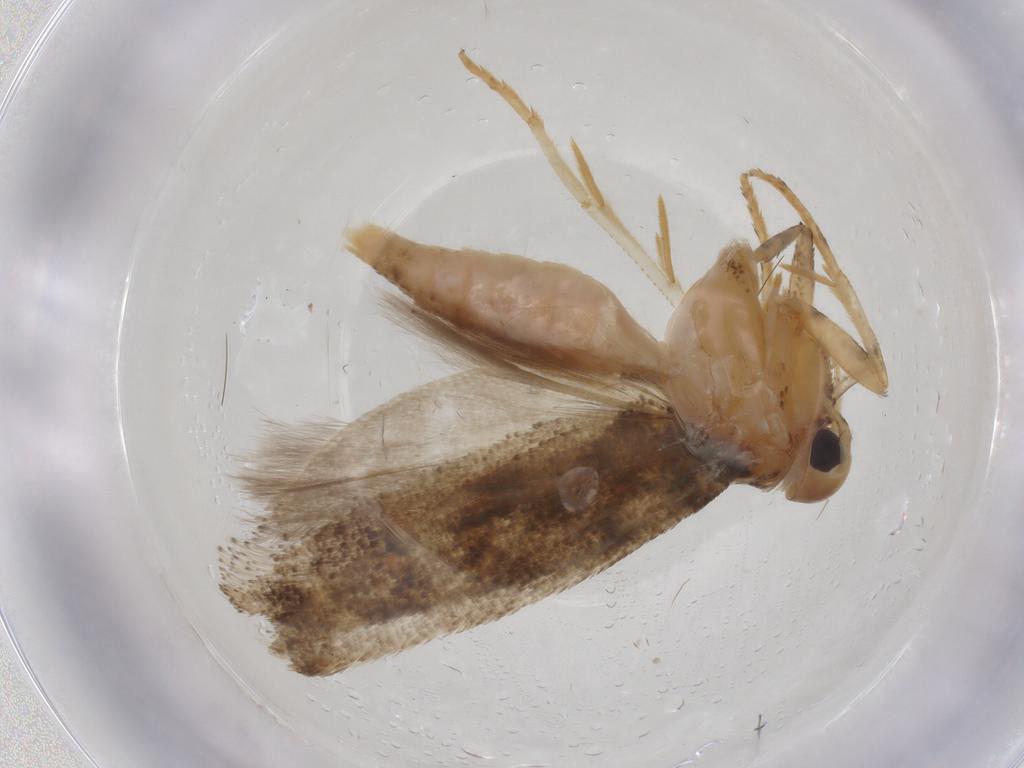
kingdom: Animalia
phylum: Arthropoda
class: Insecta
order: Lepidoptera
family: Gelechiidae
